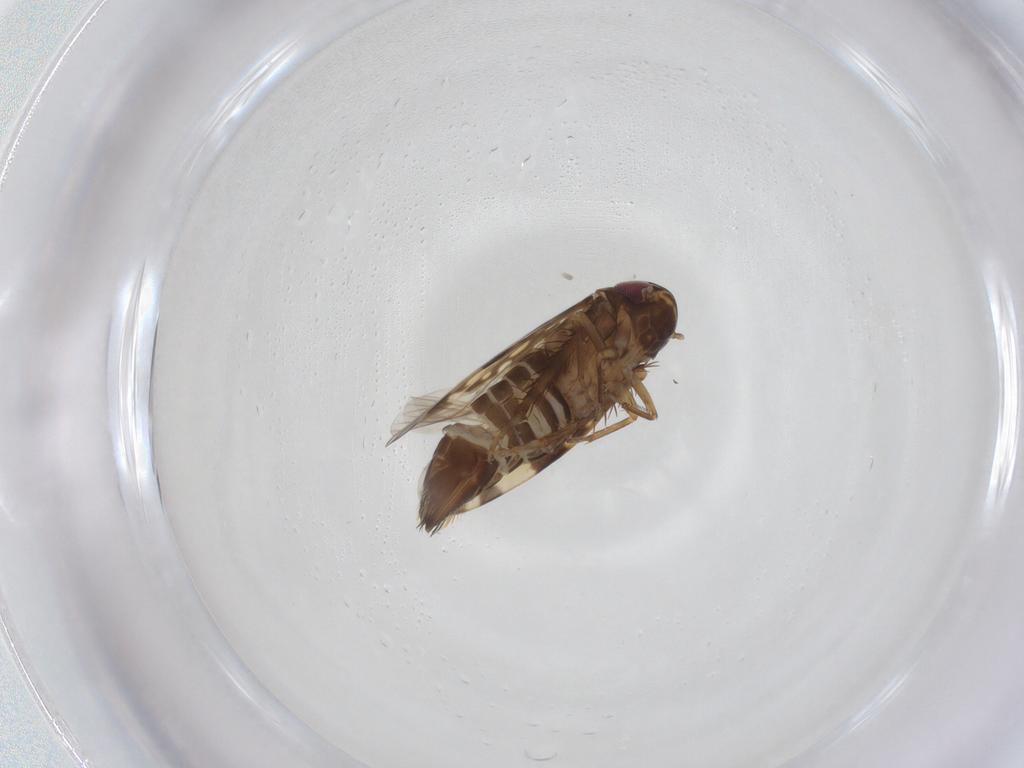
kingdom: Animalia
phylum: Arthropoda
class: Insecta
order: Hemiptera
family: Cicadellidae
